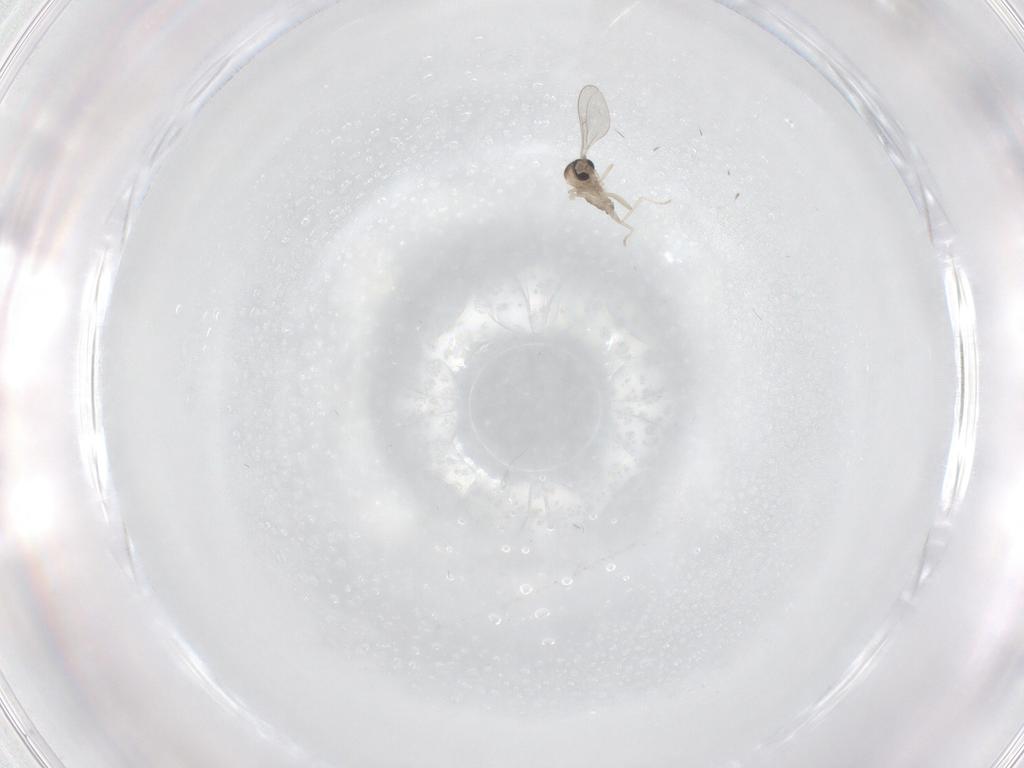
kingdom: Animalia
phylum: Arthropoda
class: Insecta
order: Diptera
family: Cecidomyiidae
